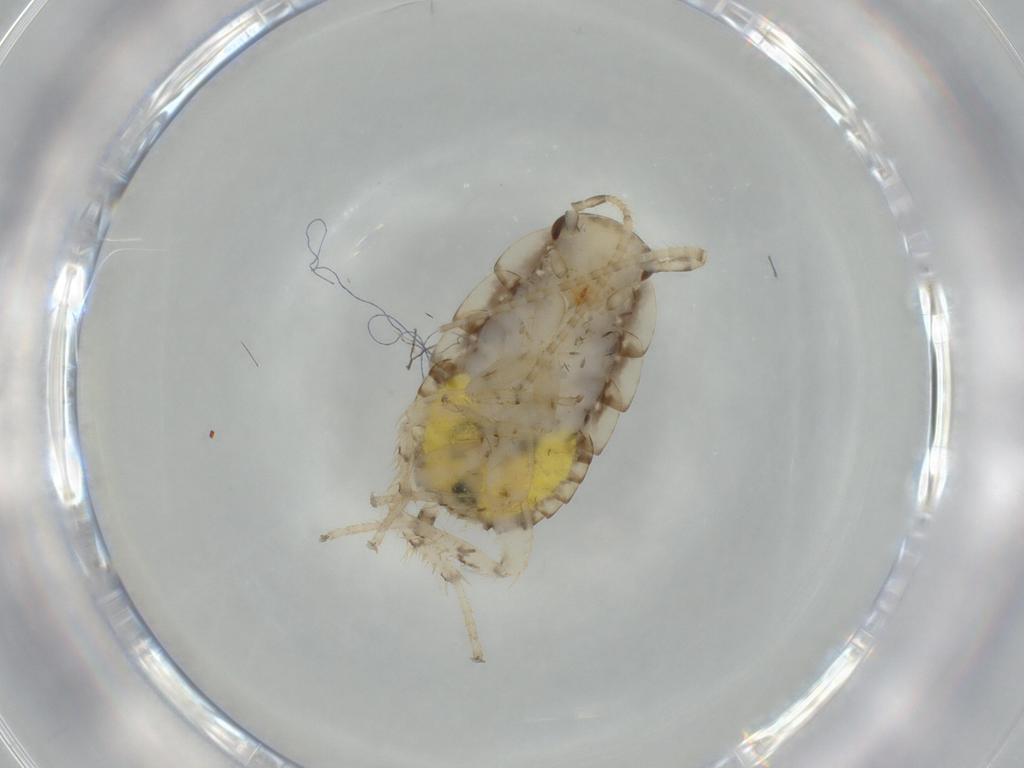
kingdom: Animalia
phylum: Arthropoda
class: Insecta
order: Blattodea
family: Ectobiidae
